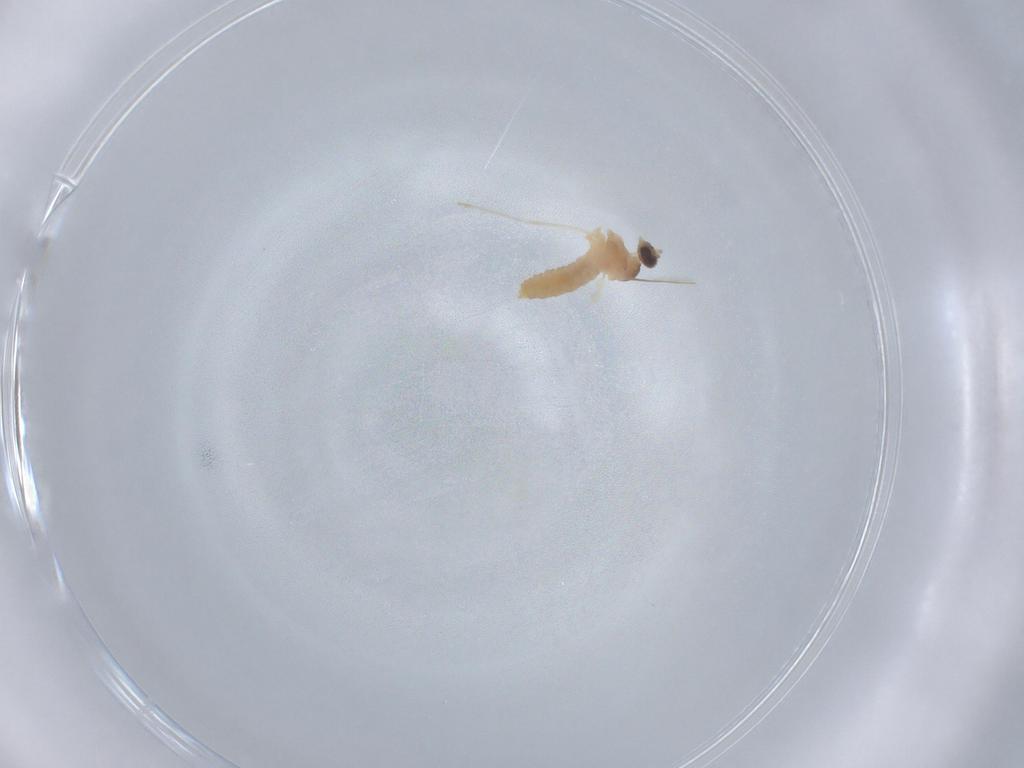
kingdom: Animalia
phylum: Arthropoda
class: Insecta
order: Diptera
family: Cecidomyiidae
